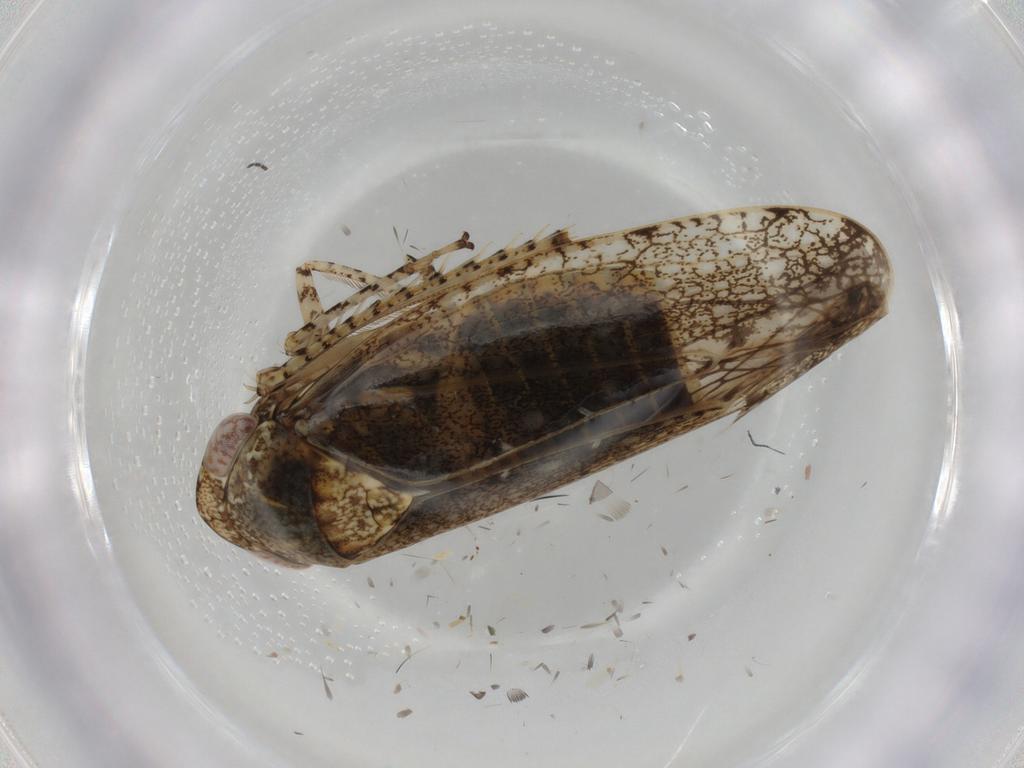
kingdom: Animalia
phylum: Arthropoda
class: Insecta
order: Hemiptera
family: Cicadellidae
